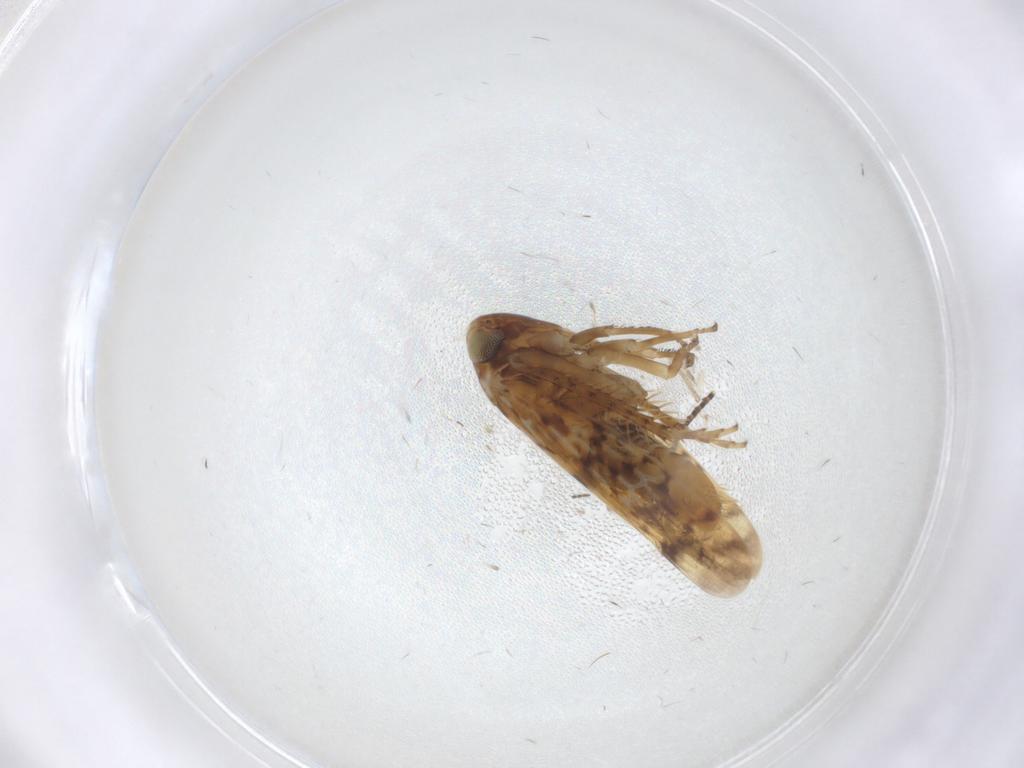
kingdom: Animalia
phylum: Arthropoda
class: Insecta
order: Hemiptera
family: Cicadellidae
